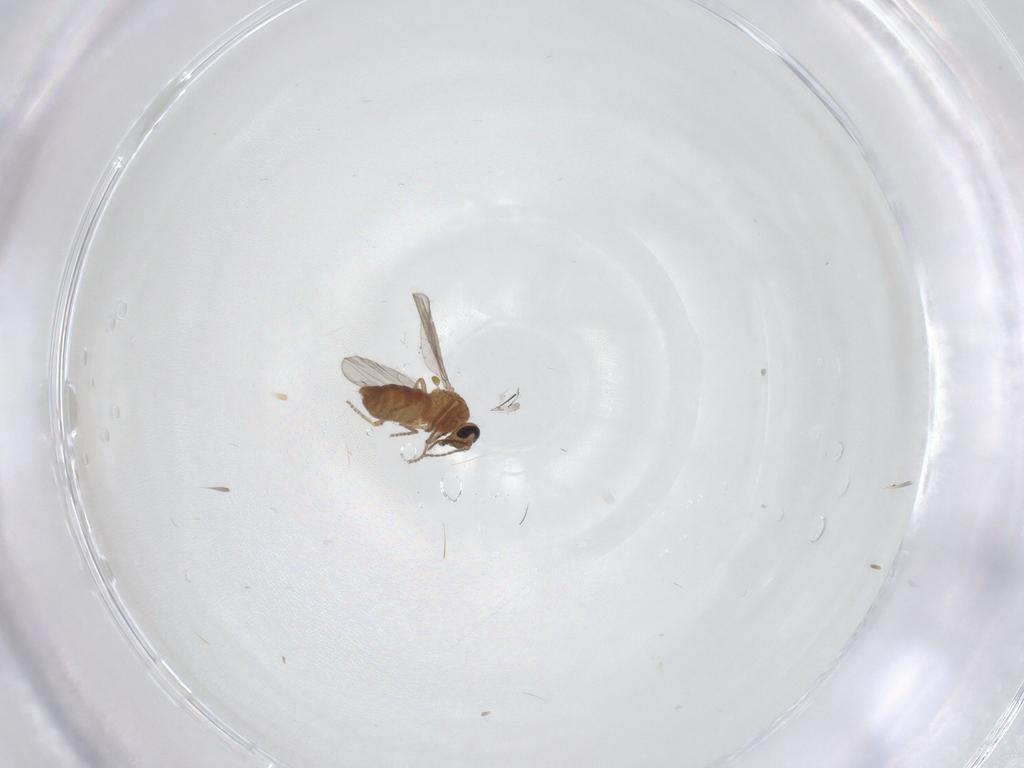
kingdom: Animalia
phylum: Arthropoda
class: Insecta
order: Diptera
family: Ceratopogonidae
